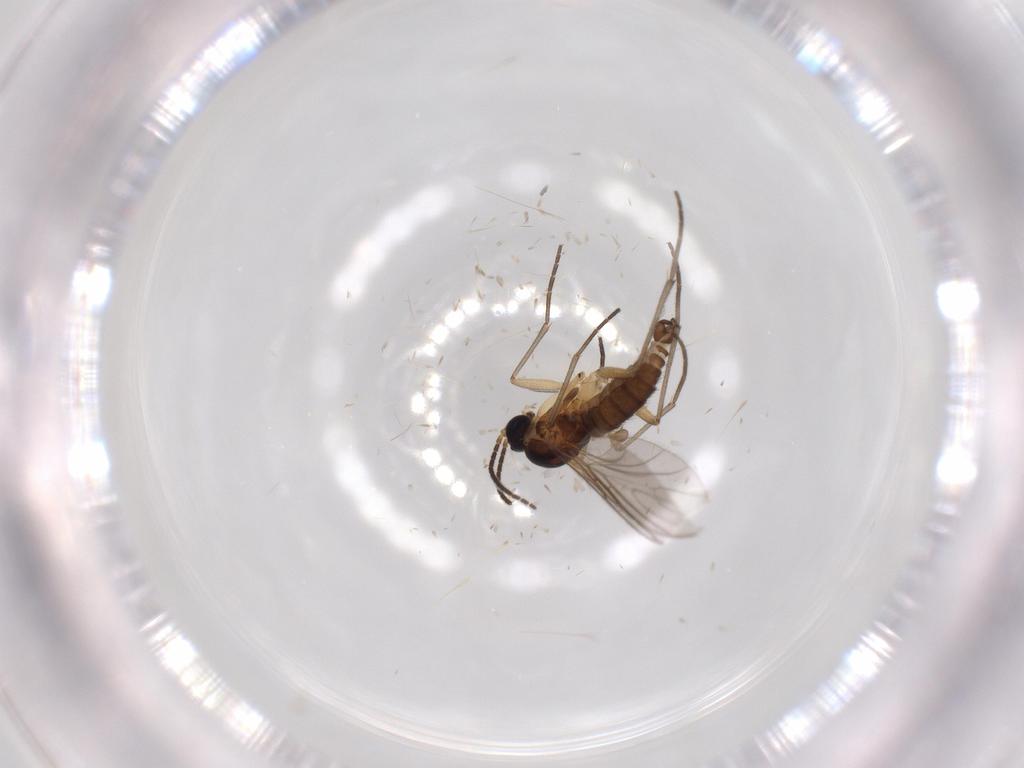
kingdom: Animalia
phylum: Arthropoda
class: Insecta
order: Diptera
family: Sciaridae
